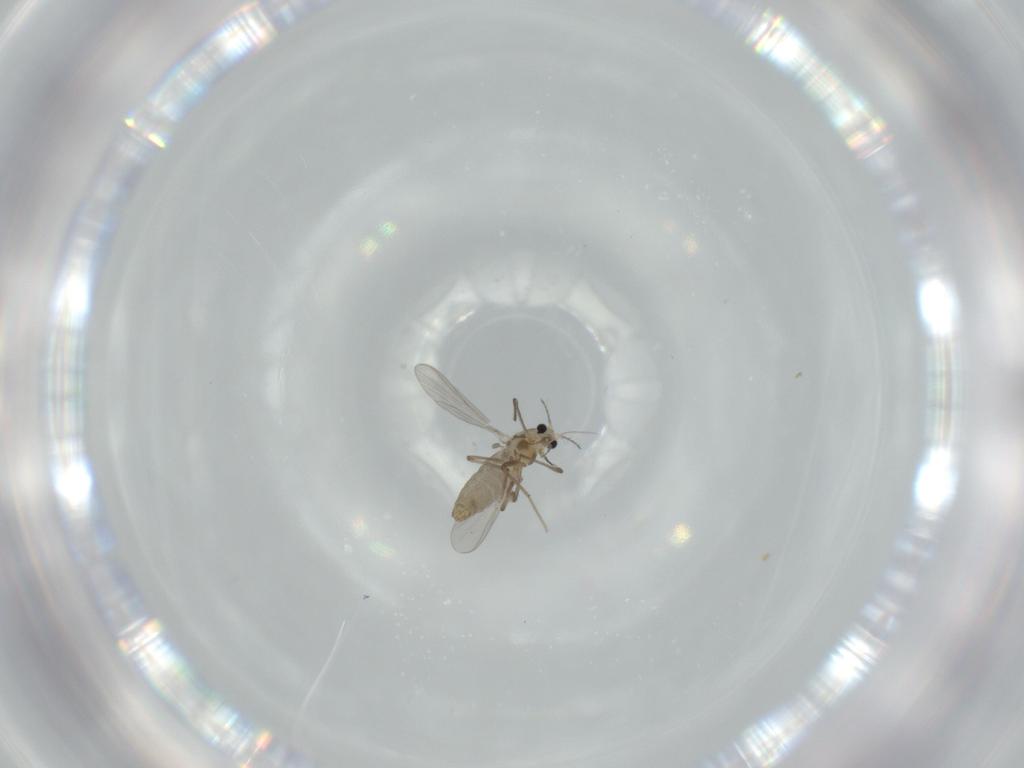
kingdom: Animalia
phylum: Arthropoda
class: Insecta
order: Diptera
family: Chironomidae
